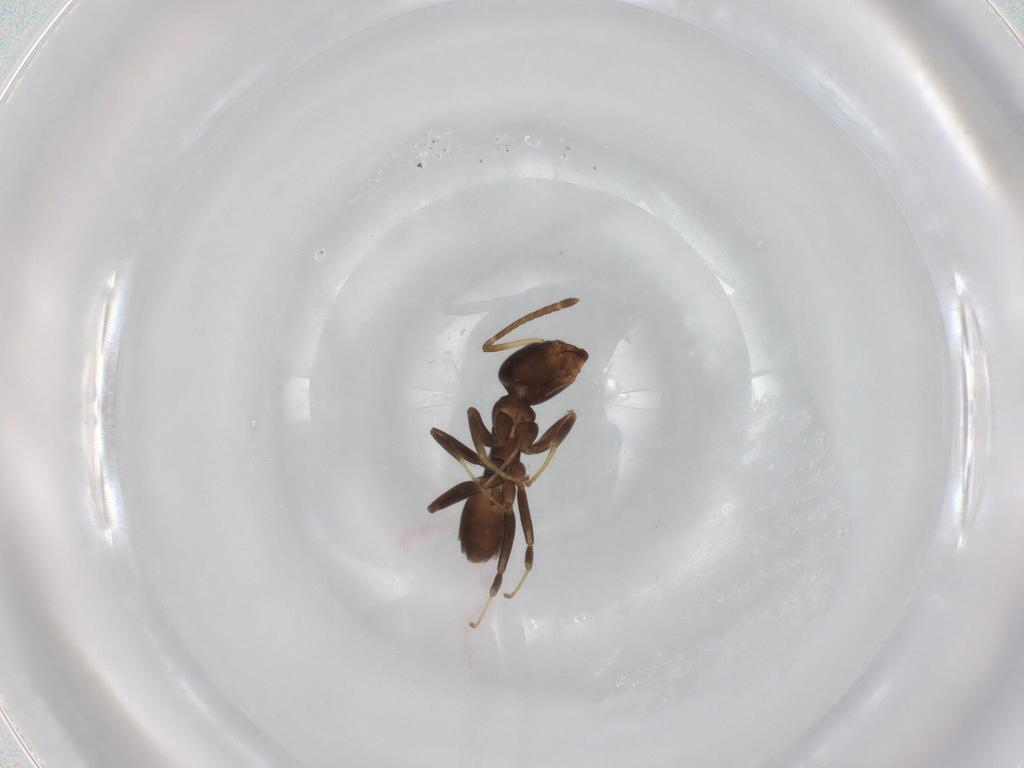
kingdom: Animalia
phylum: Arthropoda
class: Insecta
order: Hymenoptera
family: Formicidae
